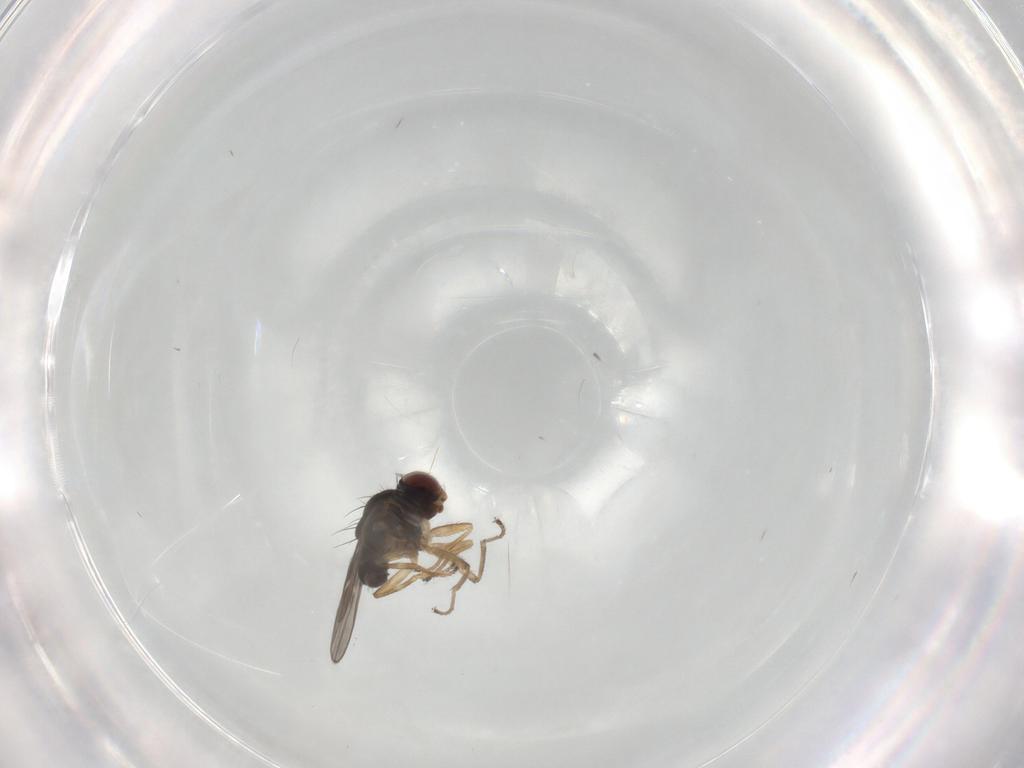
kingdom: Animalia
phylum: Arthropoda
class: Insecta
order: Diptera
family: Ephydridae
